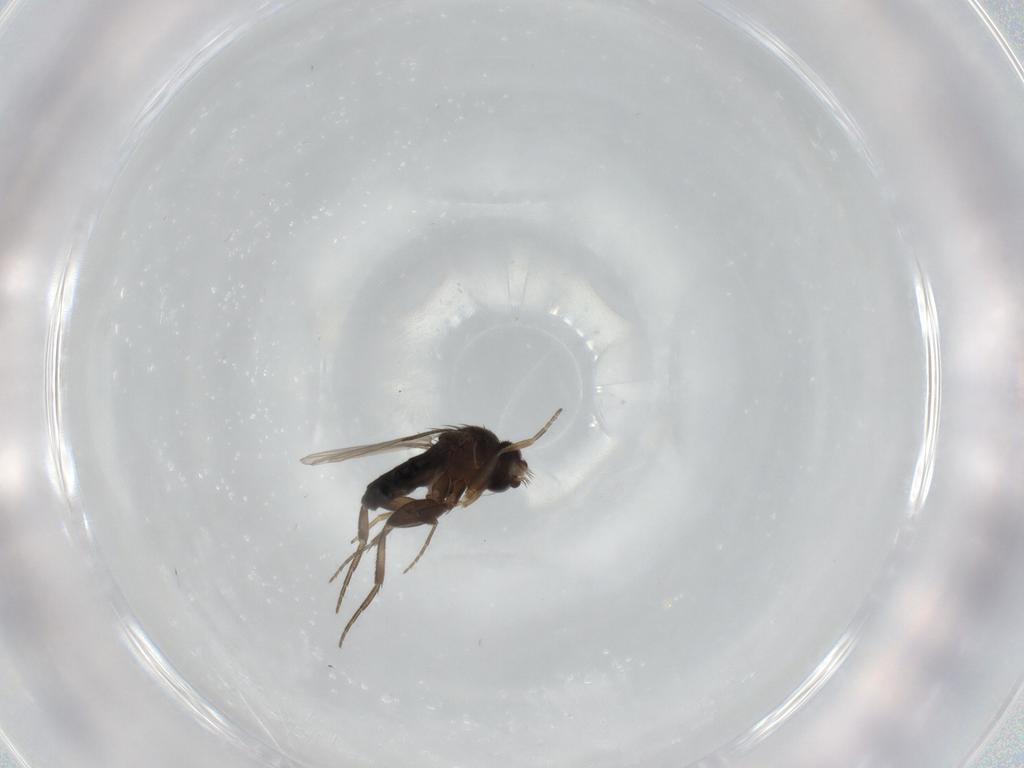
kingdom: Animalia
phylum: Arthropoda
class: Insecta
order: Diptera
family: Phoridae
